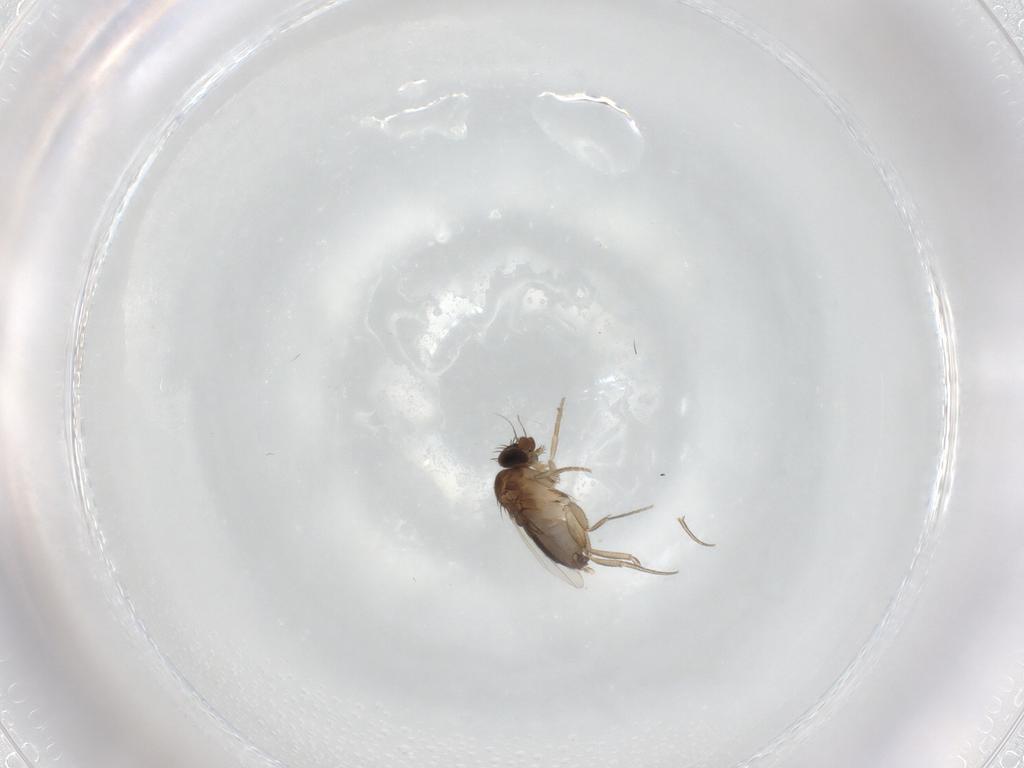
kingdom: Animalia
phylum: Arthropoda
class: Insecta
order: Diptera
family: Phoridae
